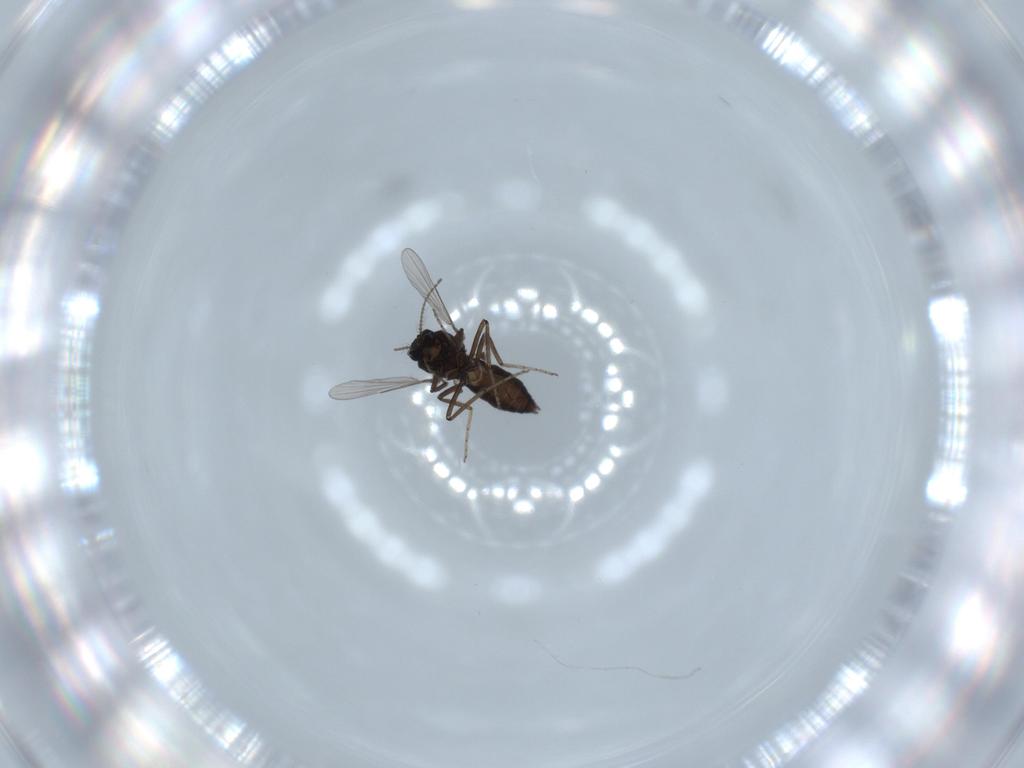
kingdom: Animalia
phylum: Arthropoda
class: Insecta
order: Diptera
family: Ceratopogonidae
